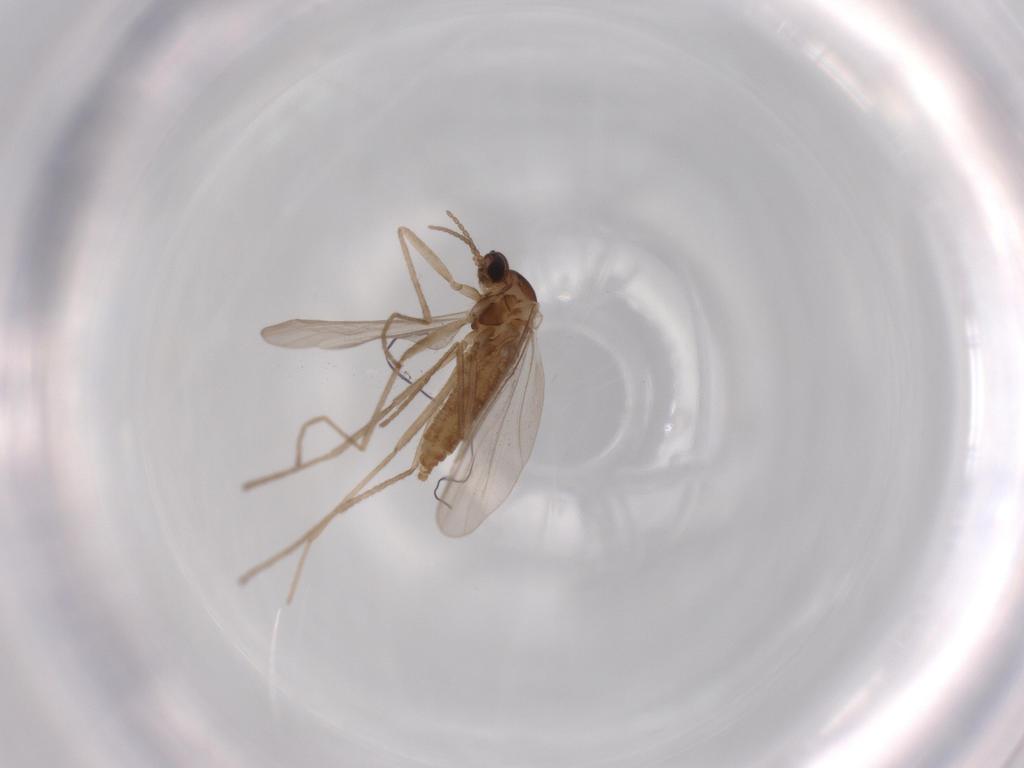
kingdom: Animalia
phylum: Arthropoda
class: Insecta
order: Diptera
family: Cecidomyiidae
